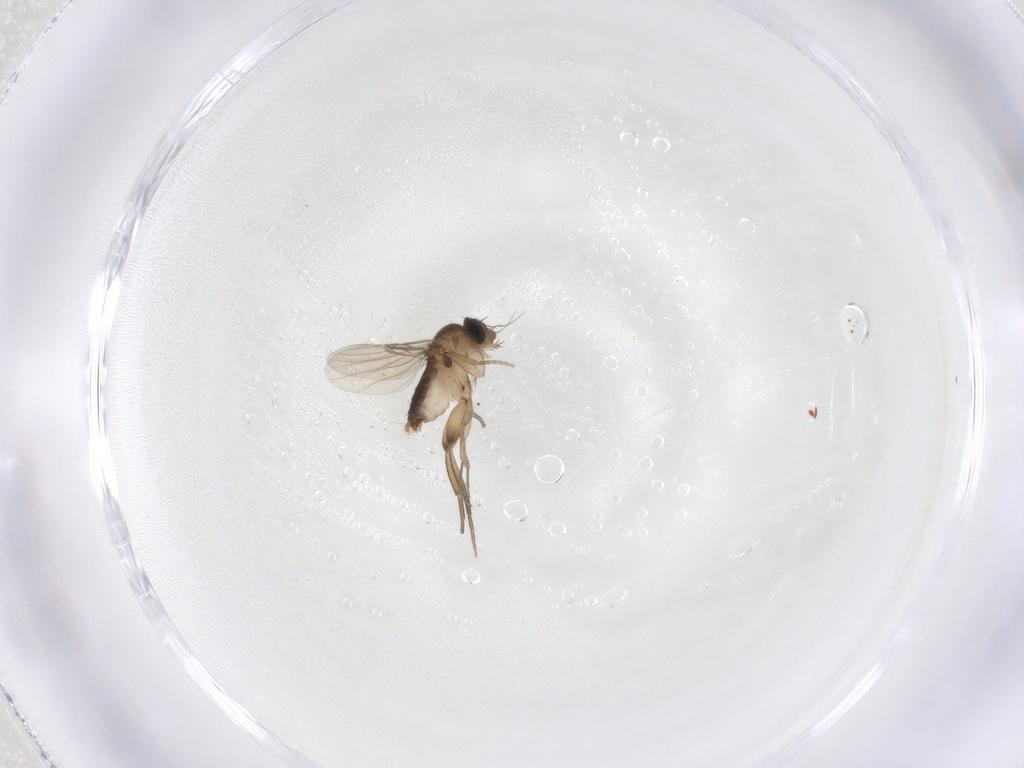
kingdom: Animalia
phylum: Arthropoda
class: Insecta
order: Diptera
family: Phoridae
